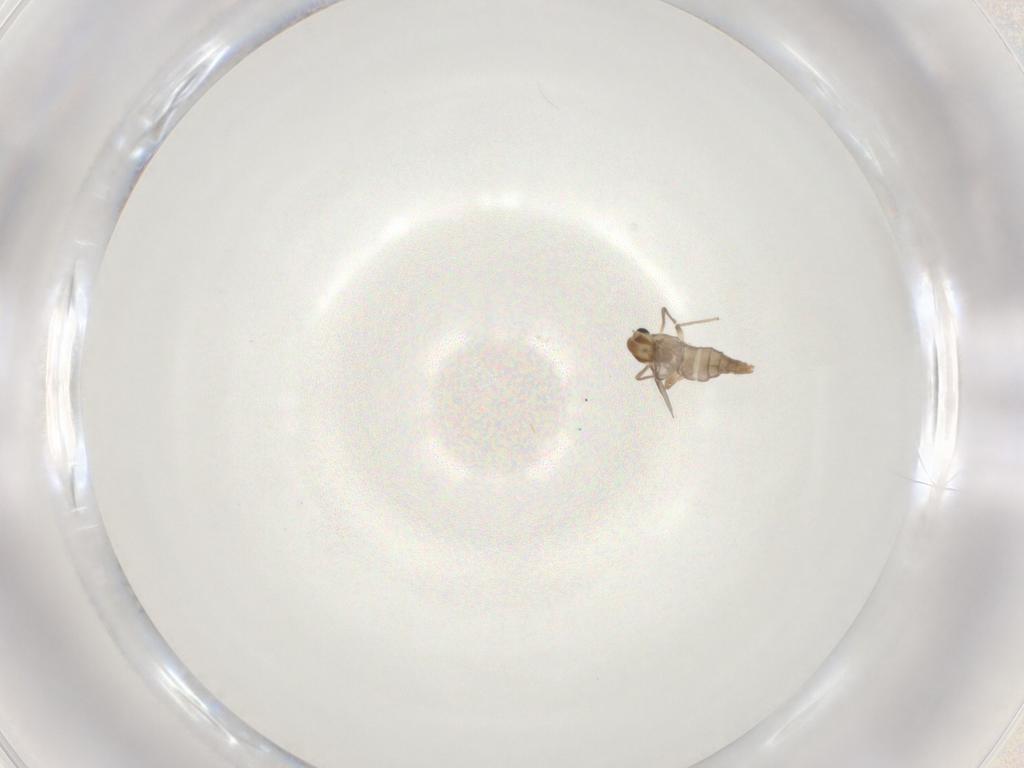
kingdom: Animalia
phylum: Arthropoda
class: Insecta
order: Diptera
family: Chironomidae
